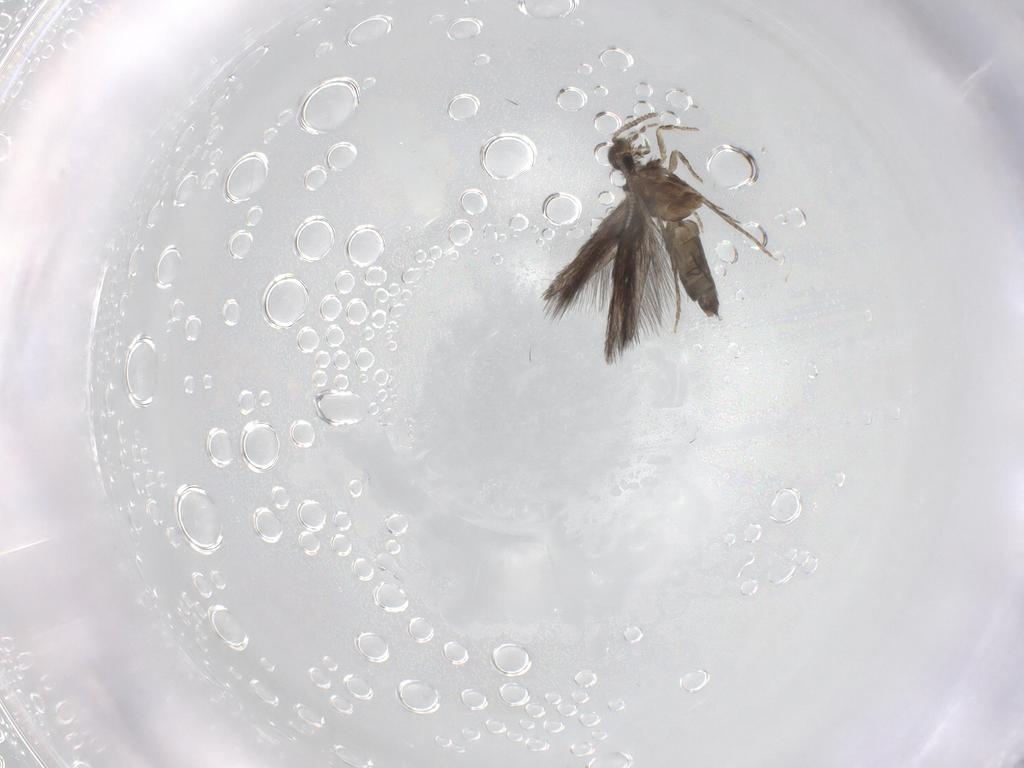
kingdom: Animalia
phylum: Arthropoda
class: Insecta
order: Trichoptera
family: Hydroptilidae
